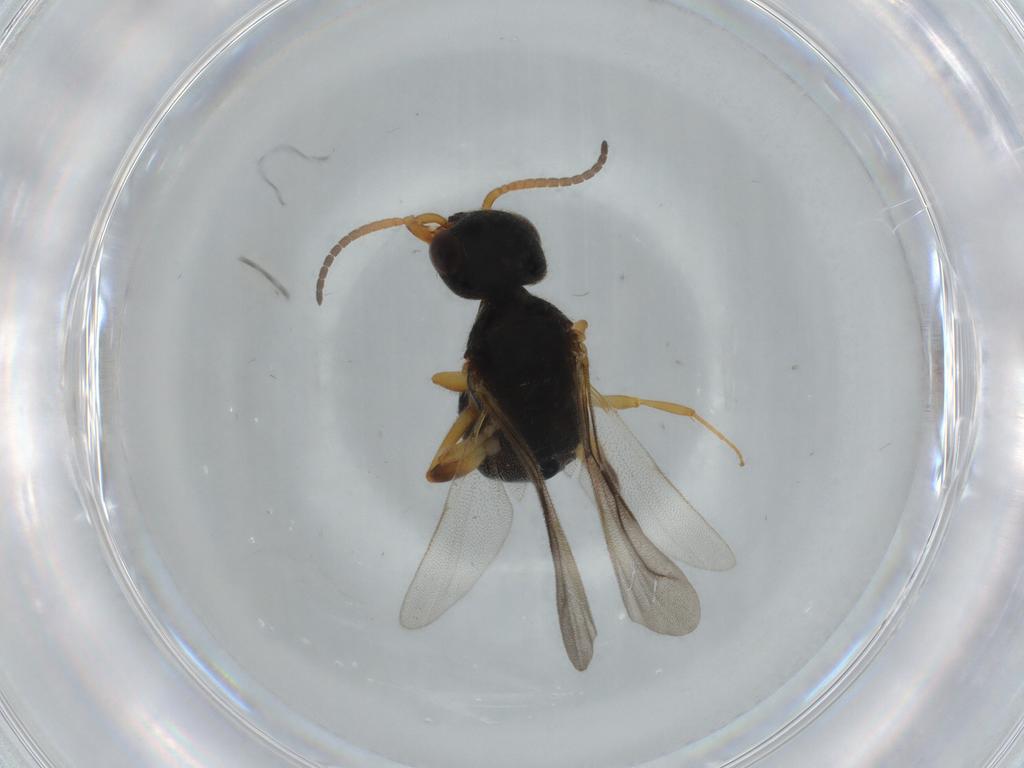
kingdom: Animalia
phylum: Arthropoda
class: Insecta
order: Hymenoptera
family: Bethylidae
